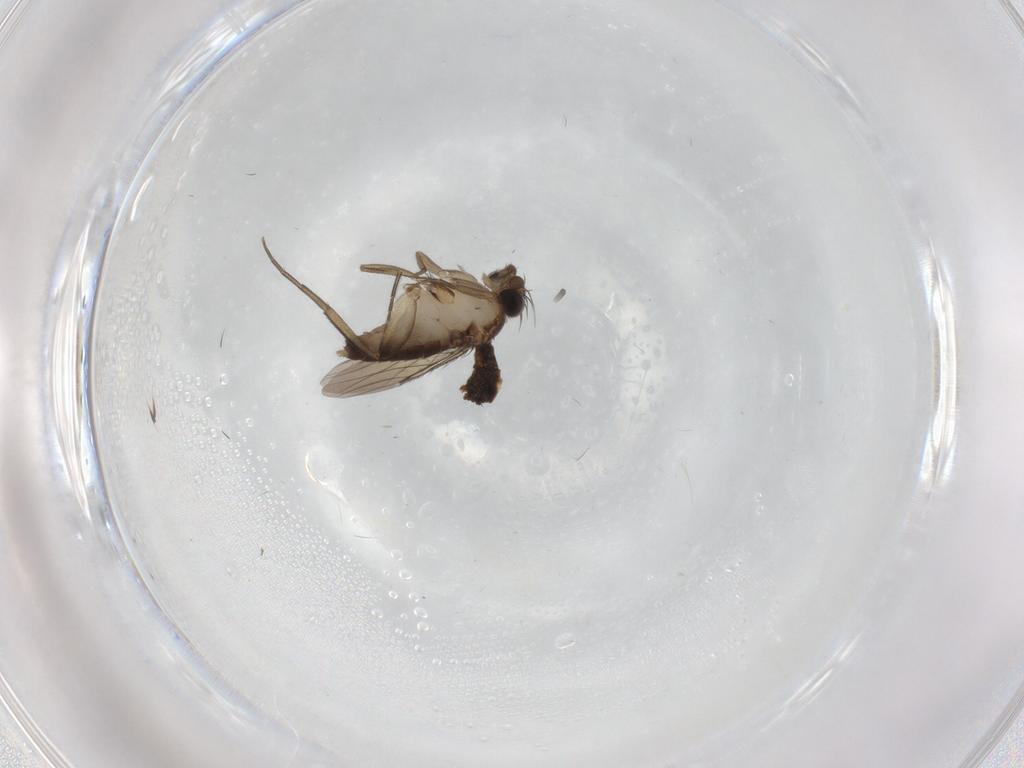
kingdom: Animalia
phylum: Arthropoda
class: Insecta
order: Diptera
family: Phoridae
